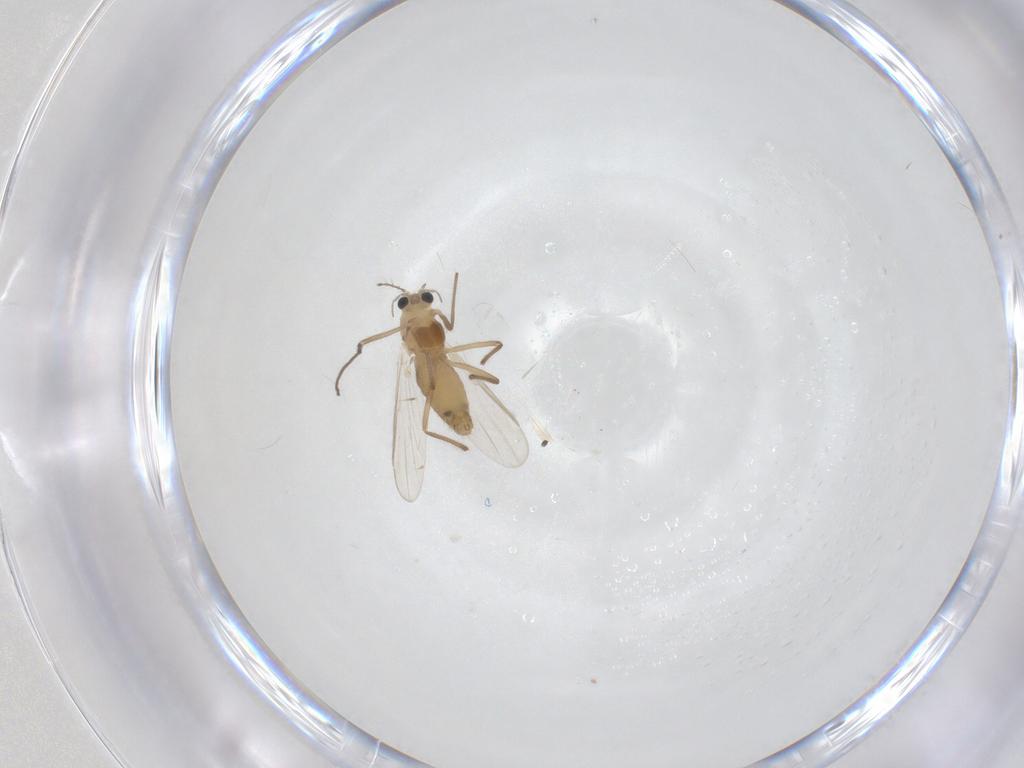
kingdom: Animalia
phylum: Arthropoda
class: Insecta
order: Diptera
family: Chironomidae
